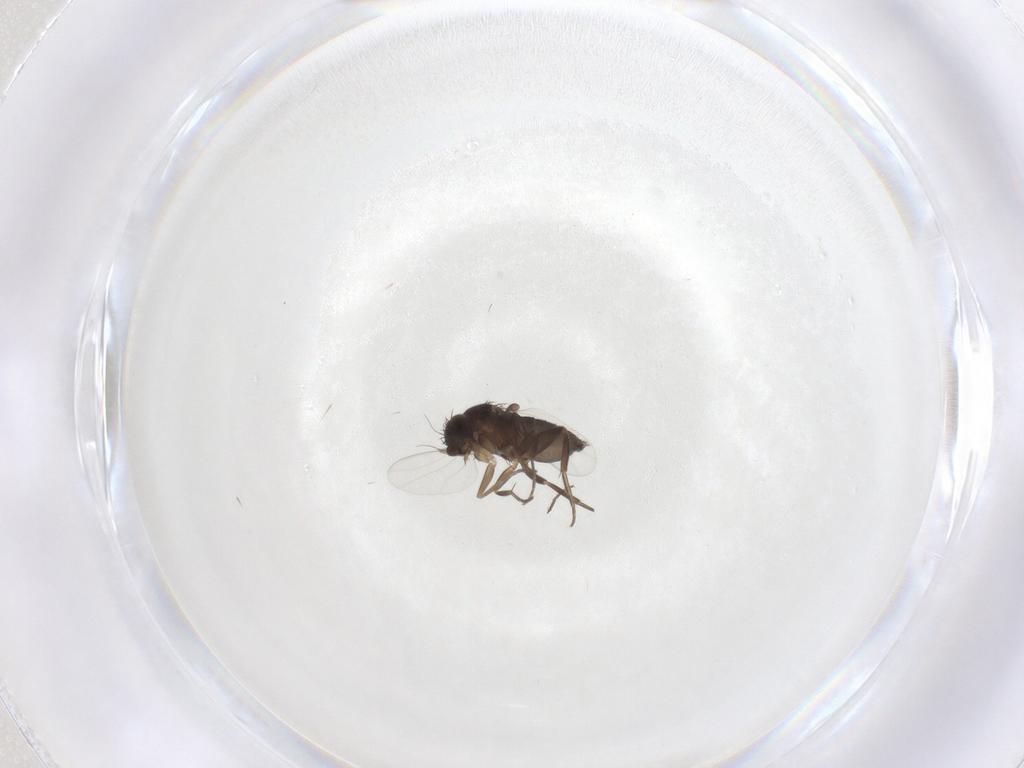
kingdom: Animalia
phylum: Arthropoda
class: Insecta
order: Diptera
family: Phoridae
